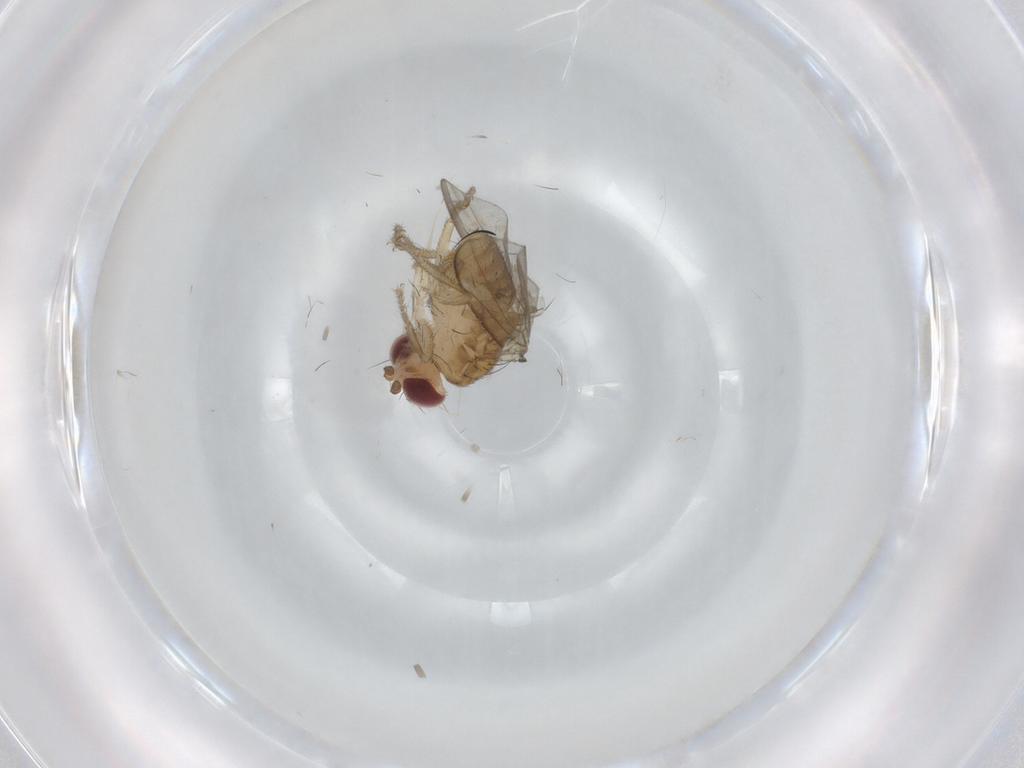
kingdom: Animalia
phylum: Arthropoda
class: Insecta
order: Diptera
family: Drosophilidae
